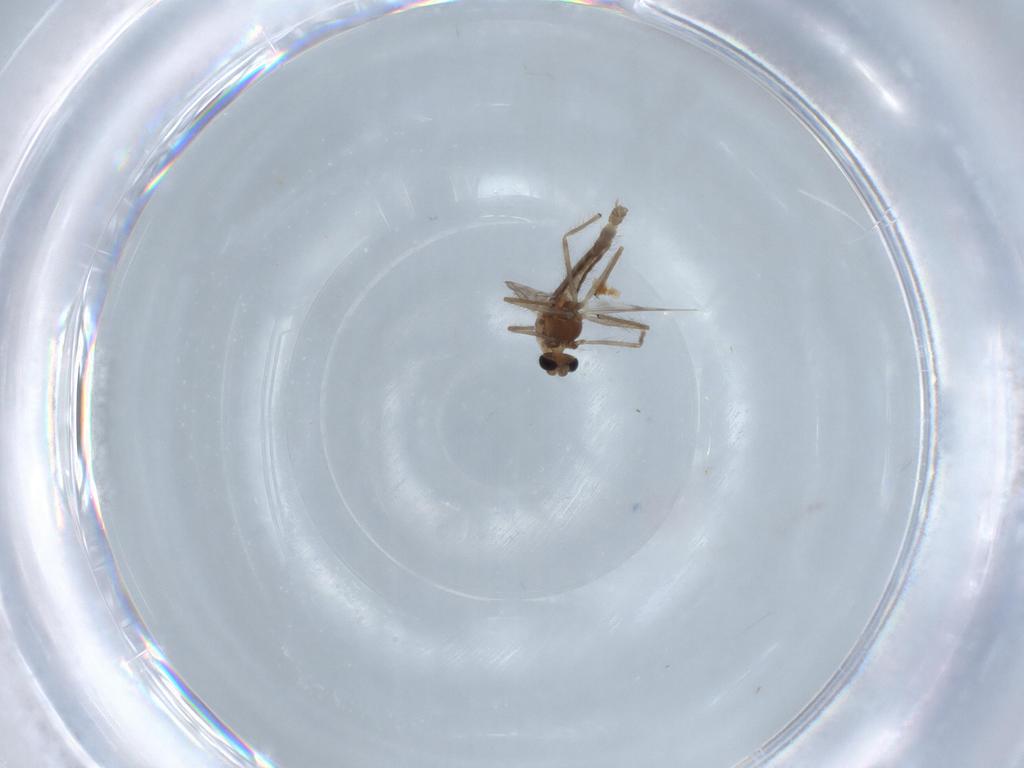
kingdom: Animalia
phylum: Arthropoda
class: Insecta
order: Diptera
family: Chironomidae
